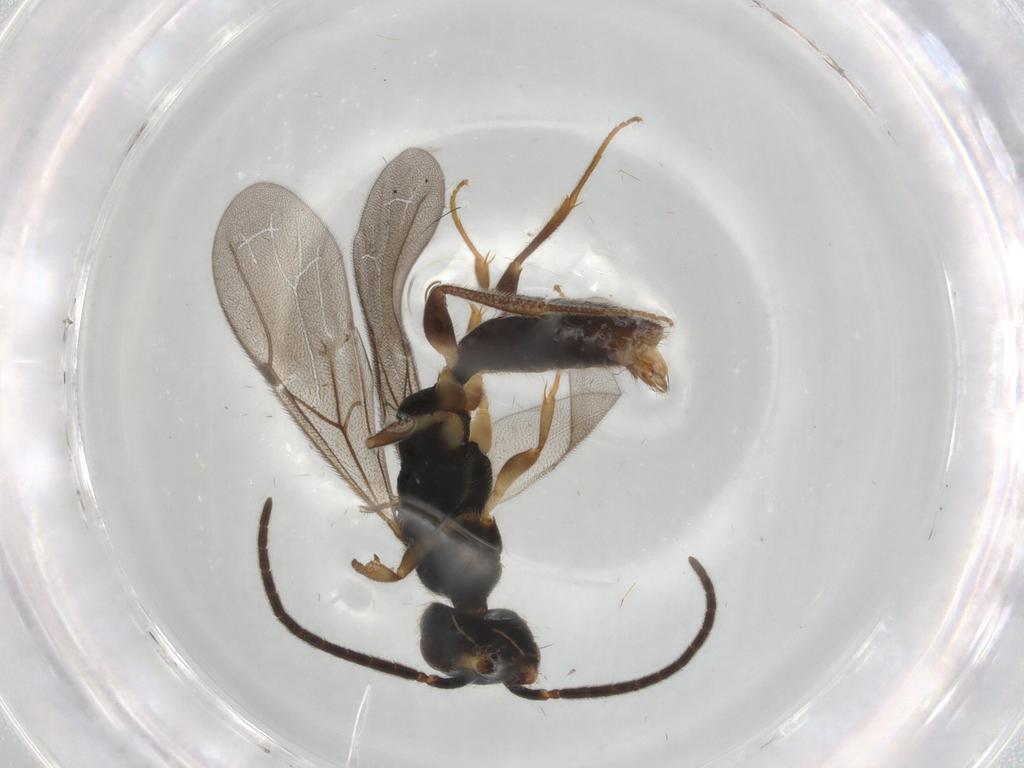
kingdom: Animalia
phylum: Arthropoda
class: Insecta
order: Hymenoptera
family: Bethylidae
